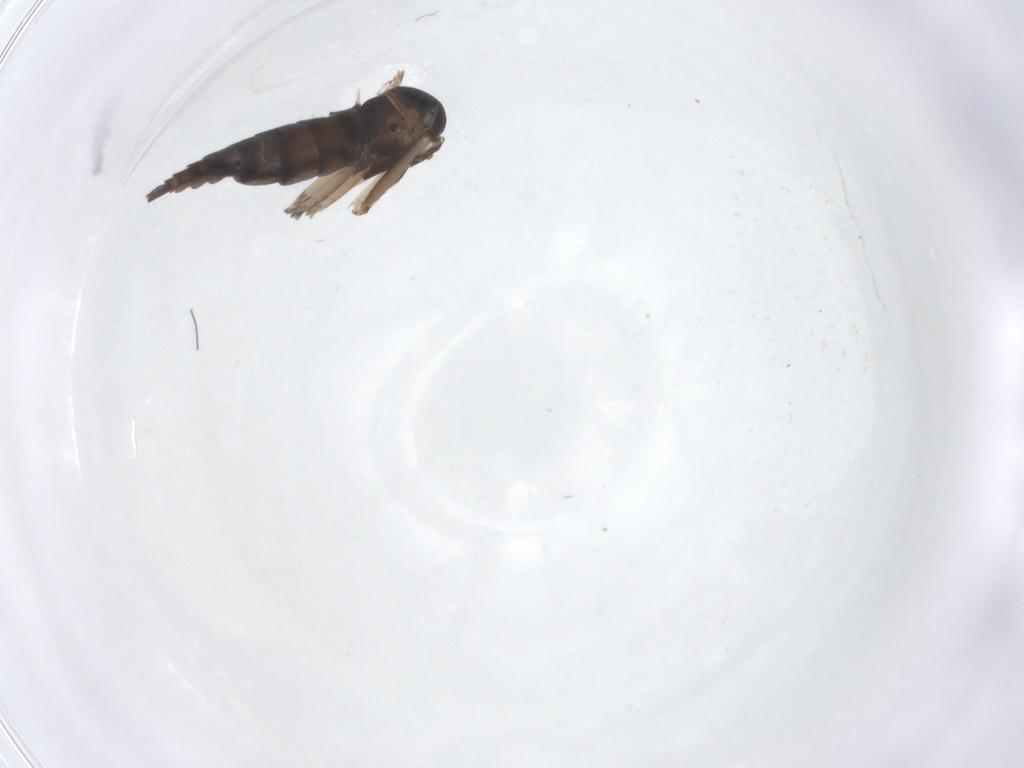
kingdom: Animalia
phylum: Arthropoda
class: Insecta
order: Diptera
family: Sciaridae
